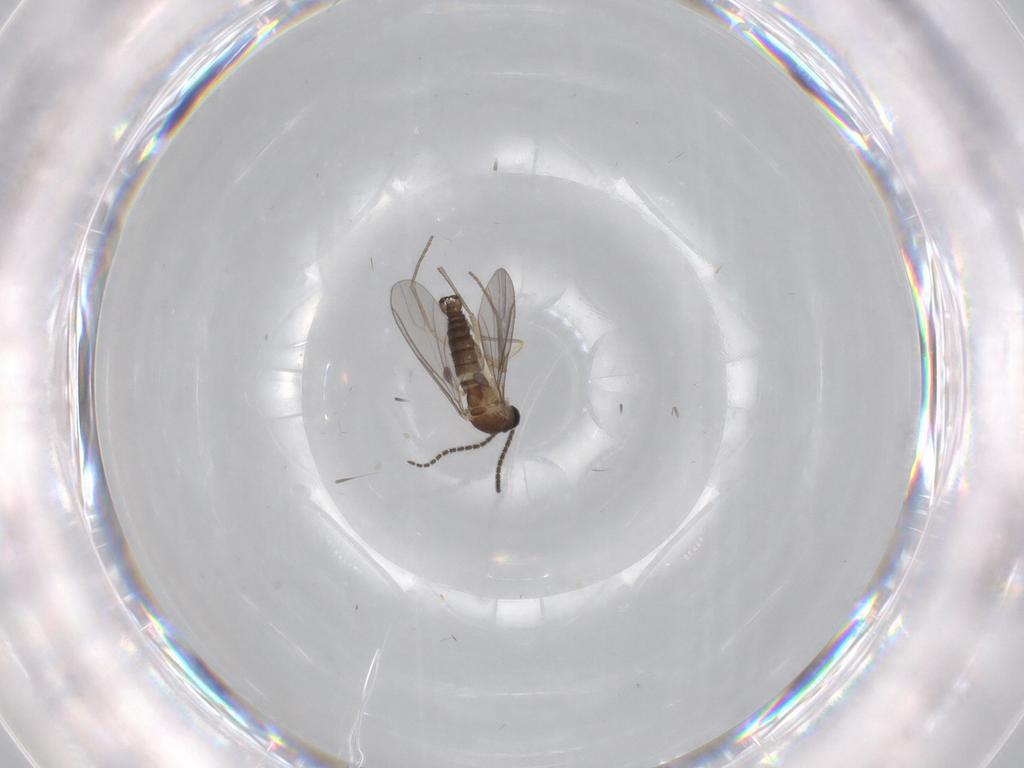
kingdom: Animalia
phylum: Arthropoda
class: Insecta
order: Diptera
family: Sciaridae
